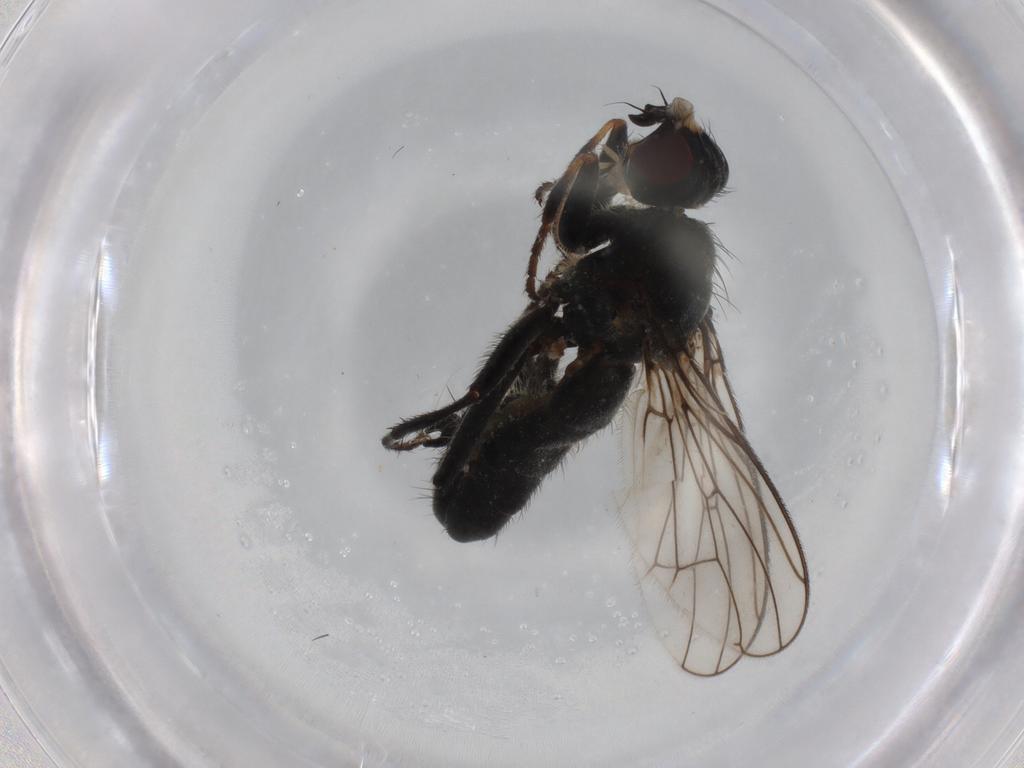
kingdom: Animalia
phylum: Arthropoda
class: Insecta
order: Diptera
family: Scathophagidae
